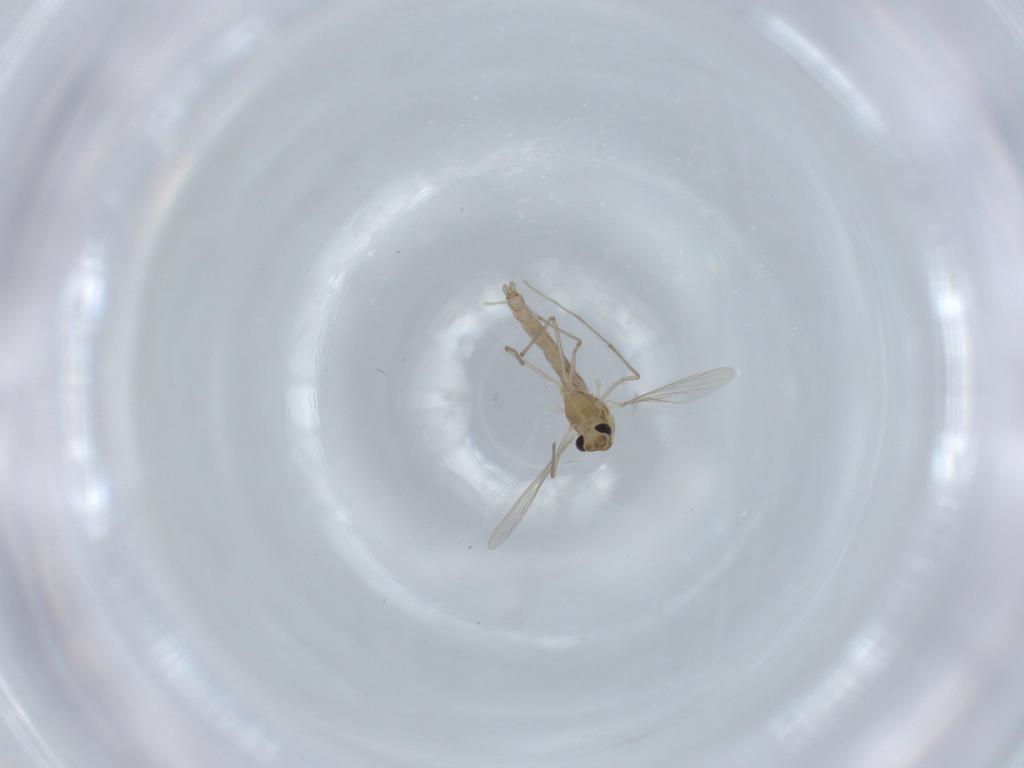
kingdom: Animalia
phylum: Arthropoda
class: Insecta
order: Diptera
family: Chironomidae
